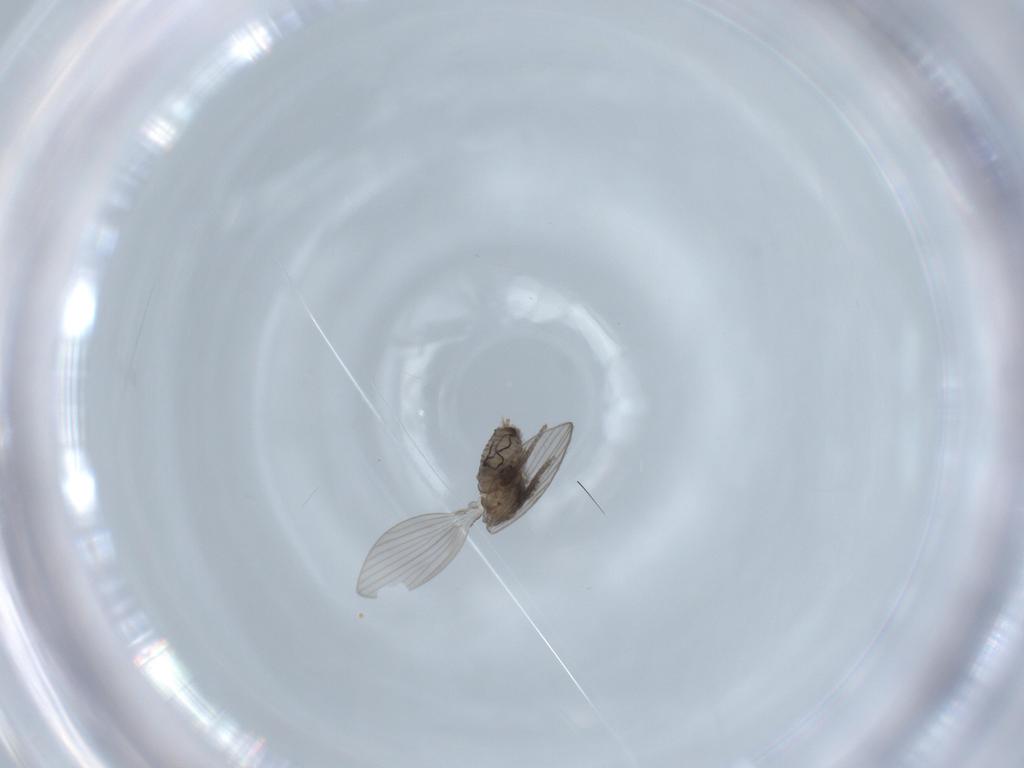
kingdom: Animalia
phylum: Arthropoda
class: Insecta
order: Diptera
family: Psychodidae
